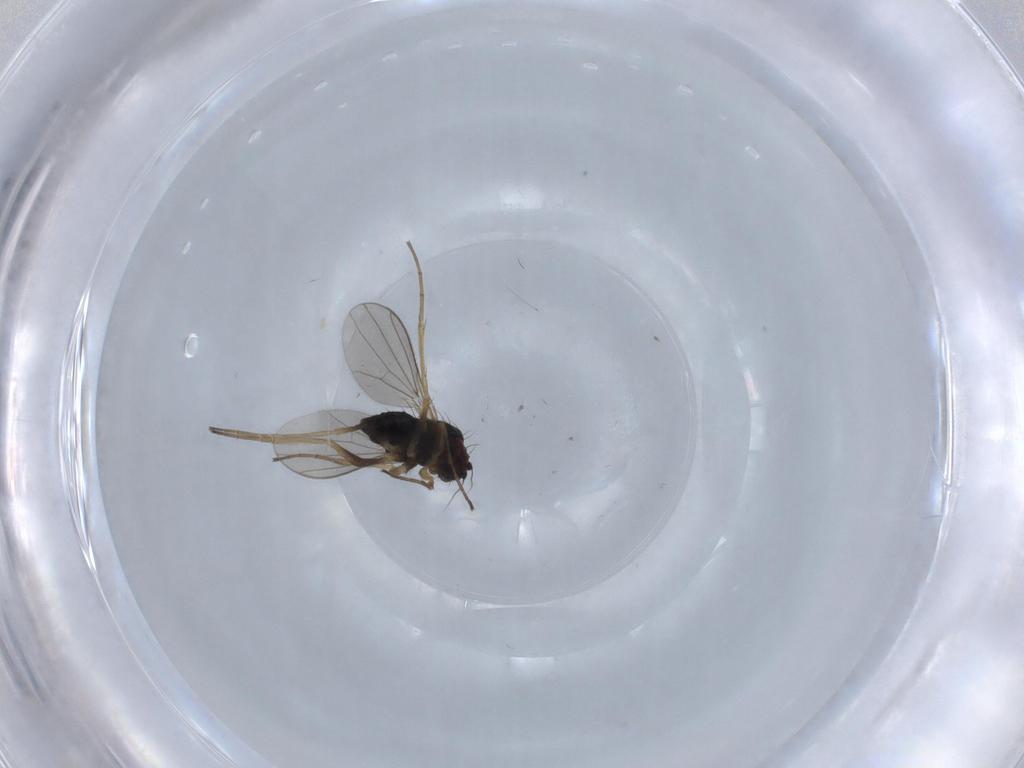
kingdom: Animalia
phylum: Arthropoda
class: Insecta
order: Diptera
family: Dolichopodidae
